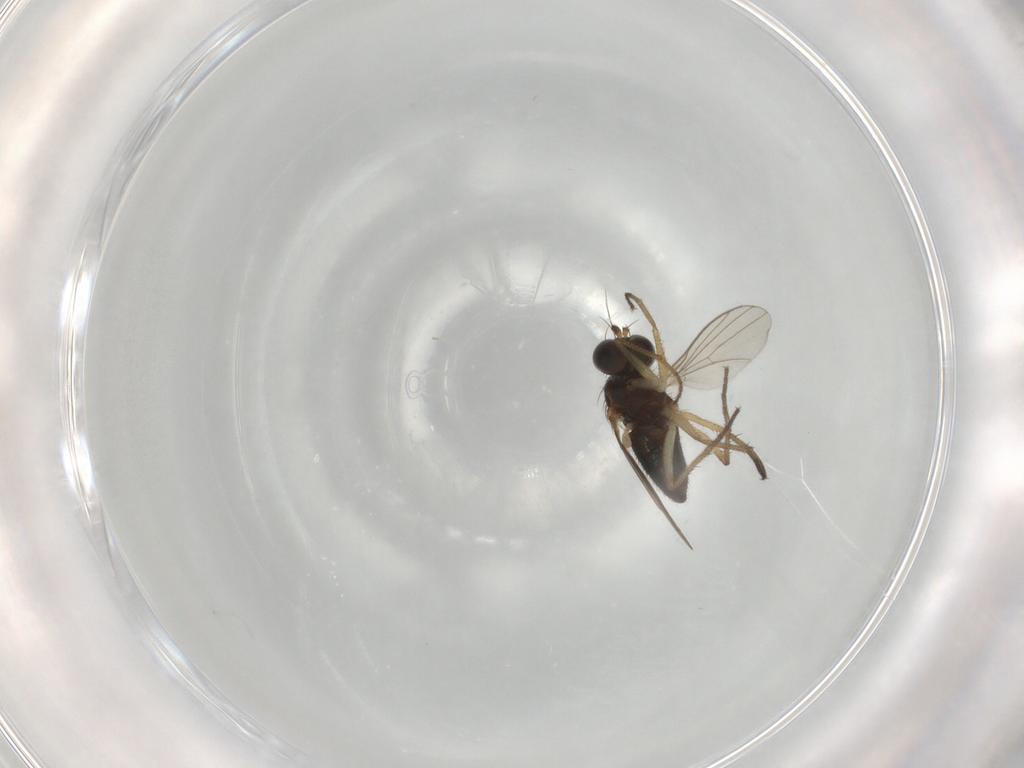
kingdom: Animalia
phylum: Arthropoda
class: Insecta
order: Diptera
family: Dolichopodidae
